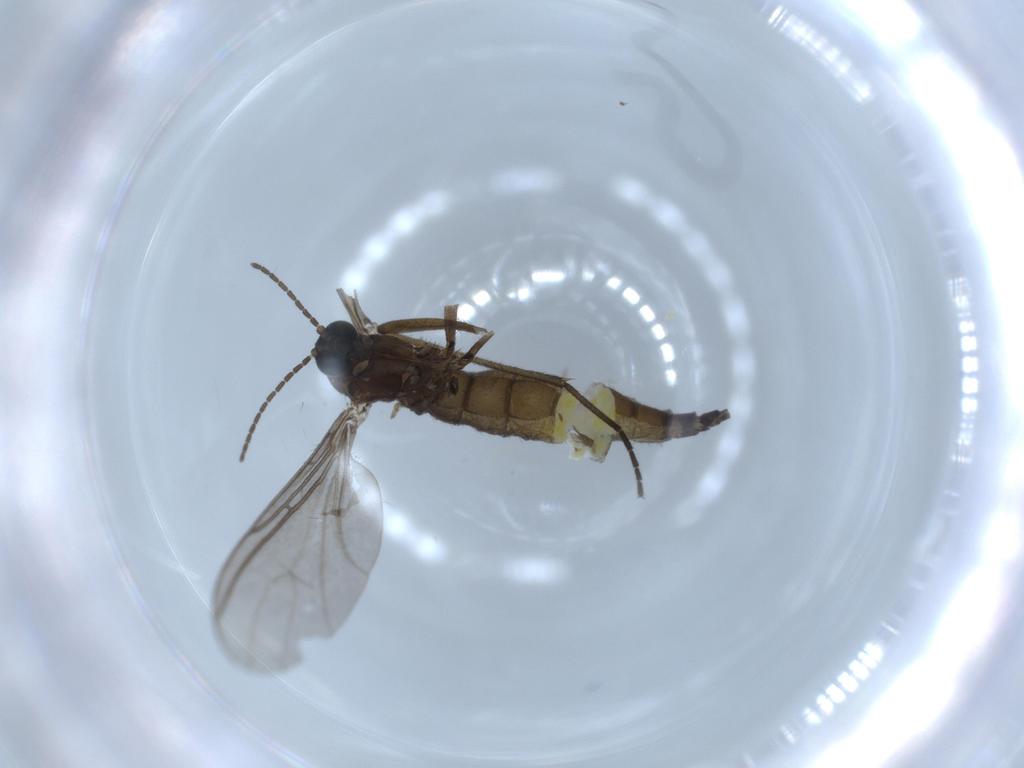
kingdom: Animalia
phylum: Arthropoda
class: Insecta
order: Diptera
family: Sciaridae
